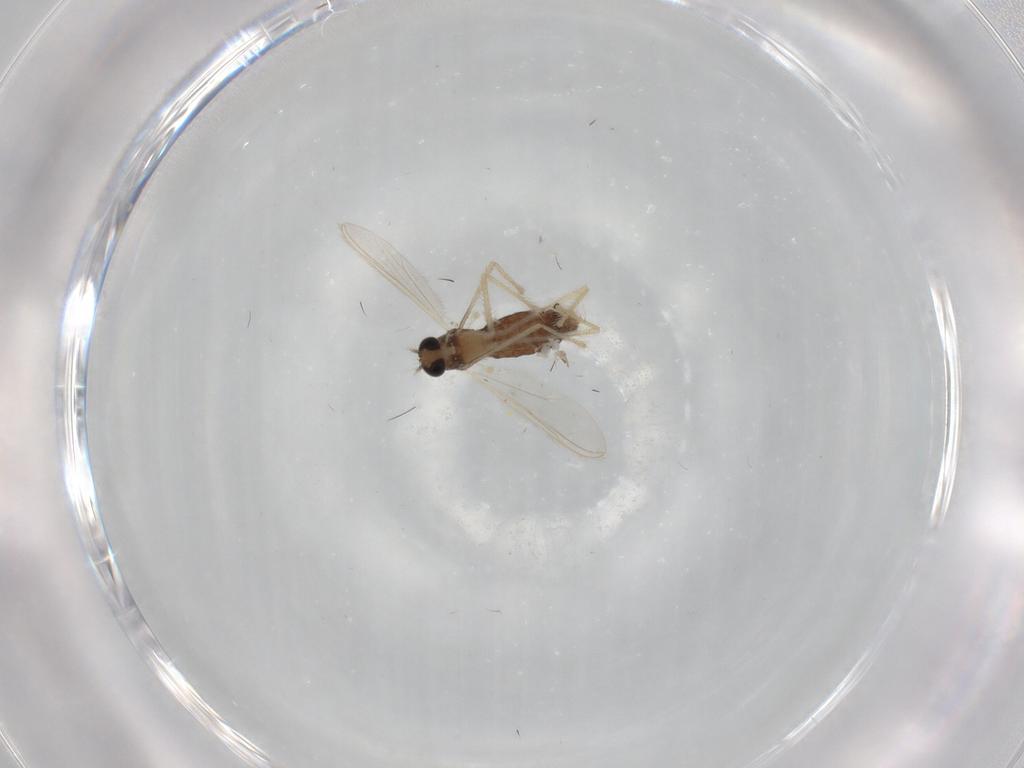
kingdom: Animalia
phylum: Arthropoda
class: Insecta
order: Diptera
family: Chironomidae
